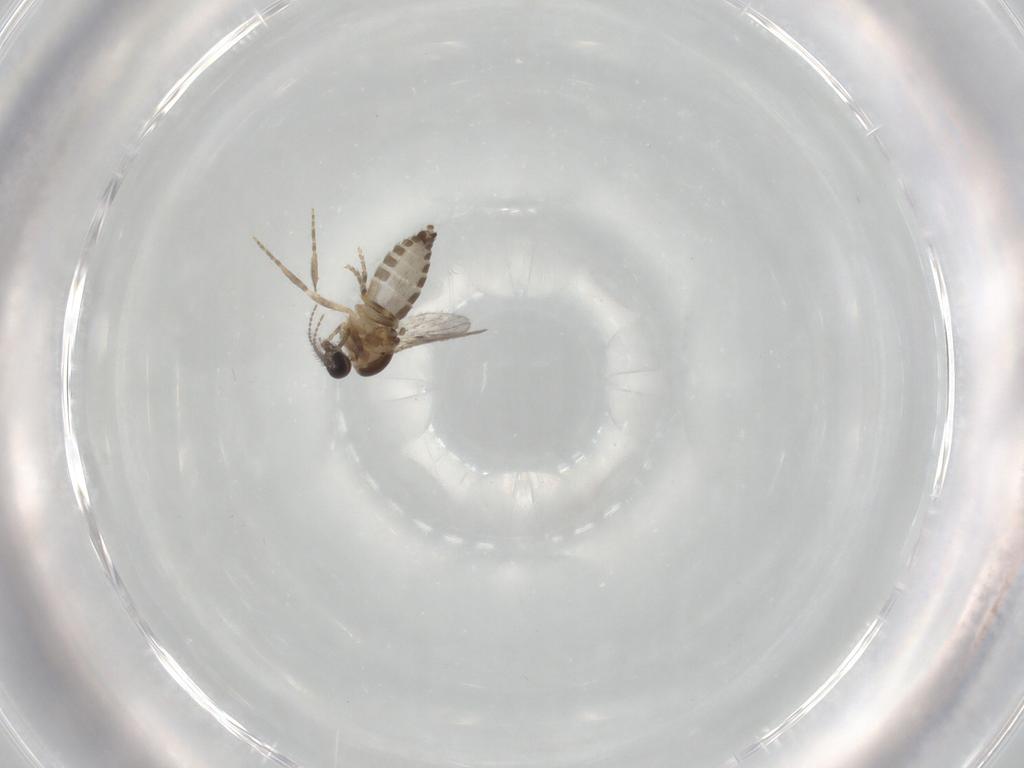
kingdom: Animalia
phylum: Arthropoda
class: Insecta
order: Diptera
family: Ceratopogonidae
